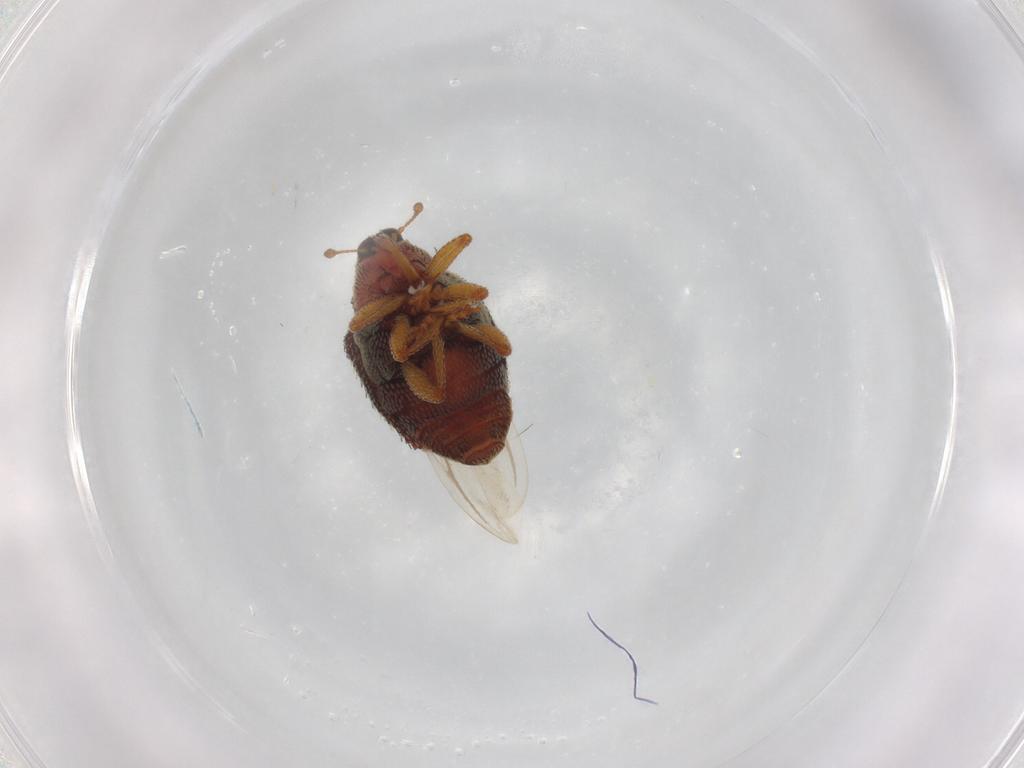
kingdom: Animalia
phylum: Arthropoda
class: Insecta
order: Coleoptera
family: Curculionidae
